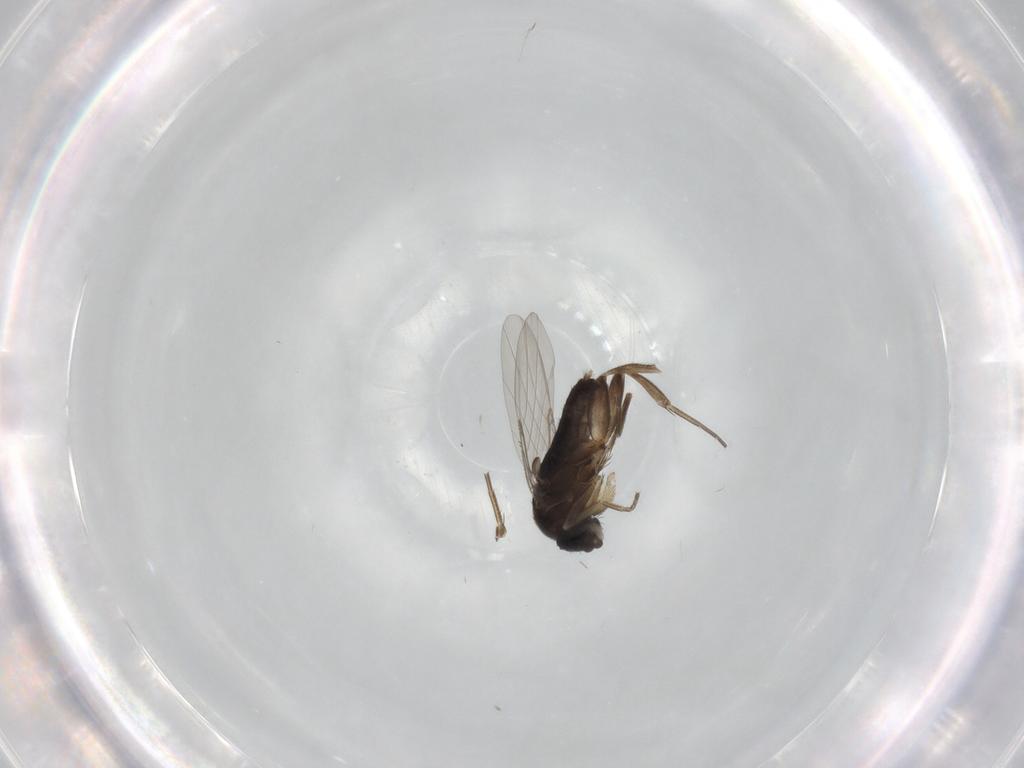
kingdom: Animalia
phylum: Arthropoda
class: Insecta
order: Diptera
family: Phoridae
